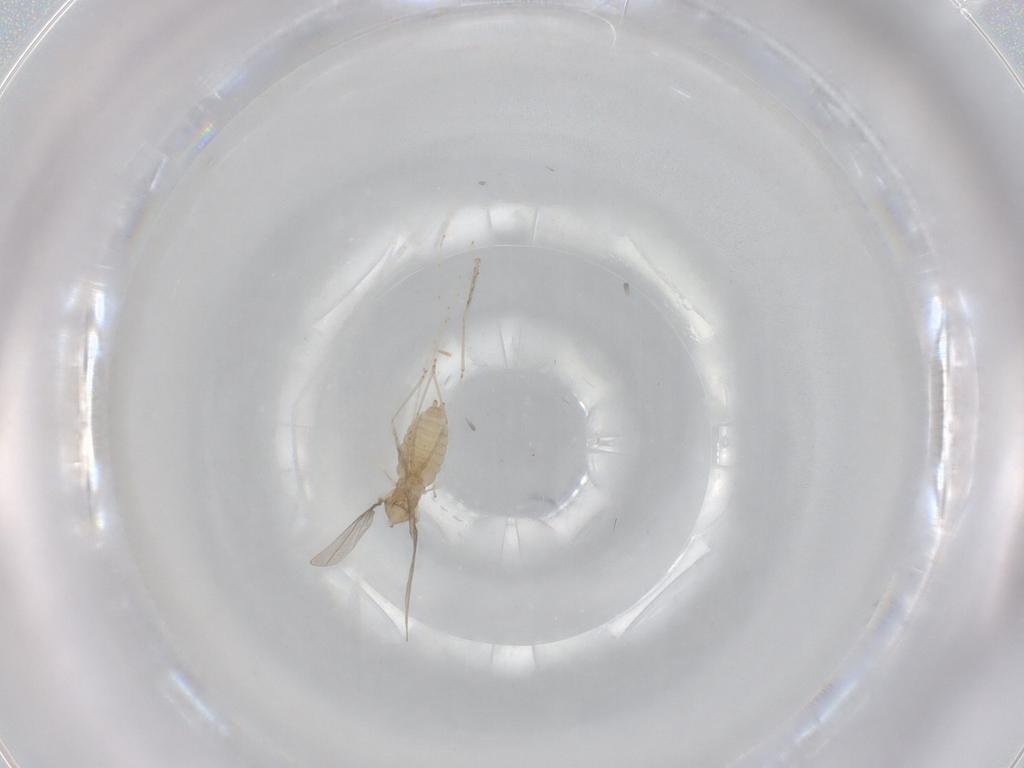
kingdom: Animalia
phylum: Arthropoda
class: Insecta
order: Diptera
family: Cecidomyiidae
